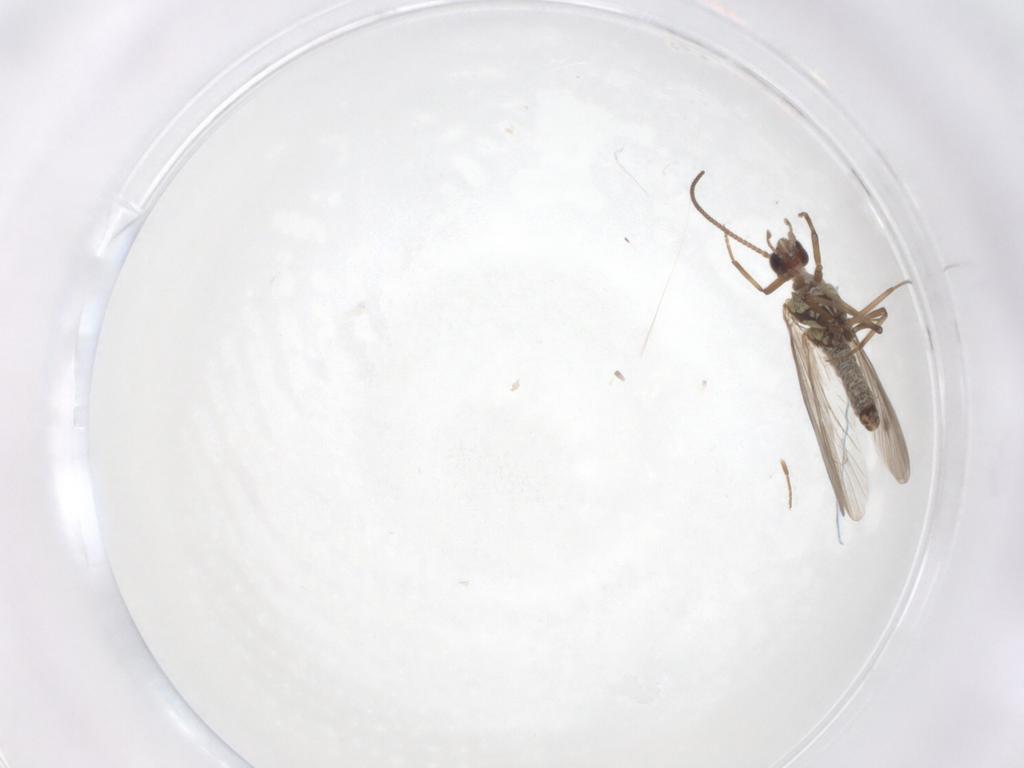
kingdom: Animalia
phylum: Arthropoda
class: Insecta
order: Neuroptera
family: Coniopterygidae
